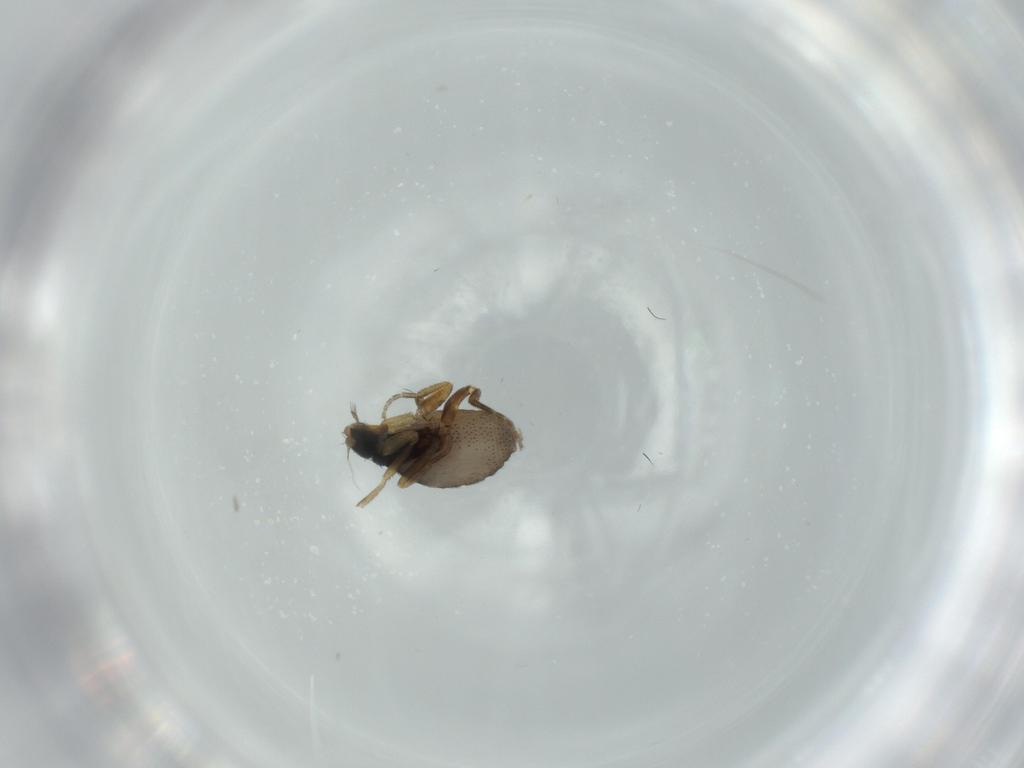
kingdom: Animalia
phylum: Arthropoda
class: Insecta
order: Diptera
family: Phoridae
